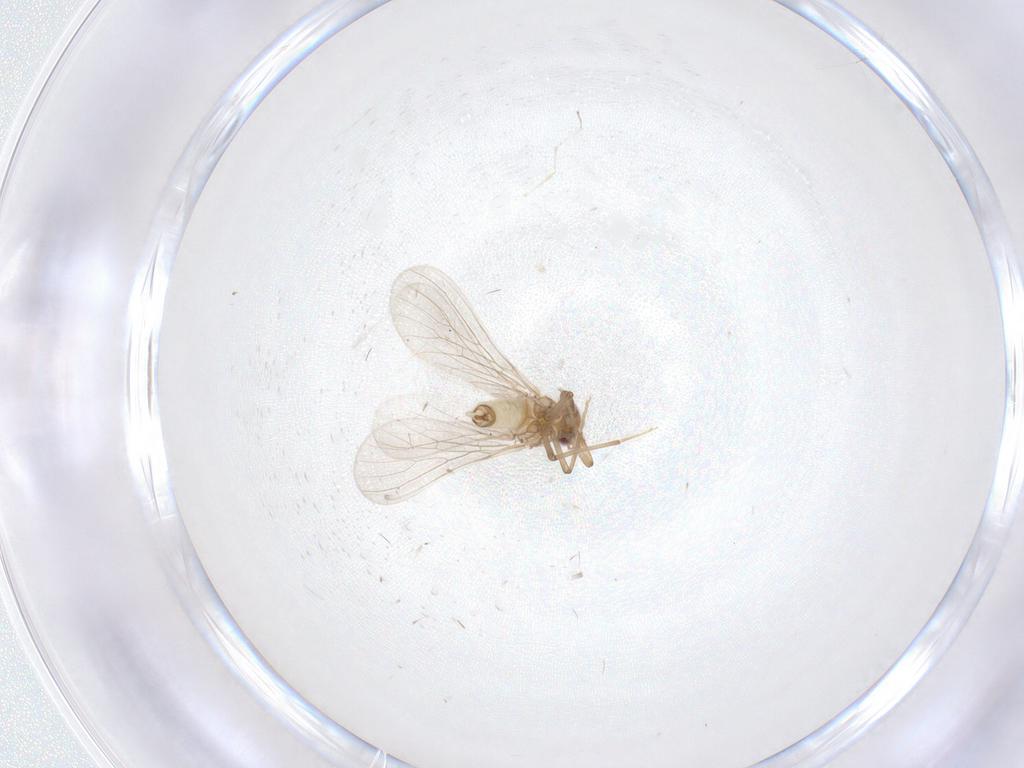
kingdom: Animalia
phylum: Arthropoda
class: Insecta
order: Neuroptera
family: Coniopterygidae
